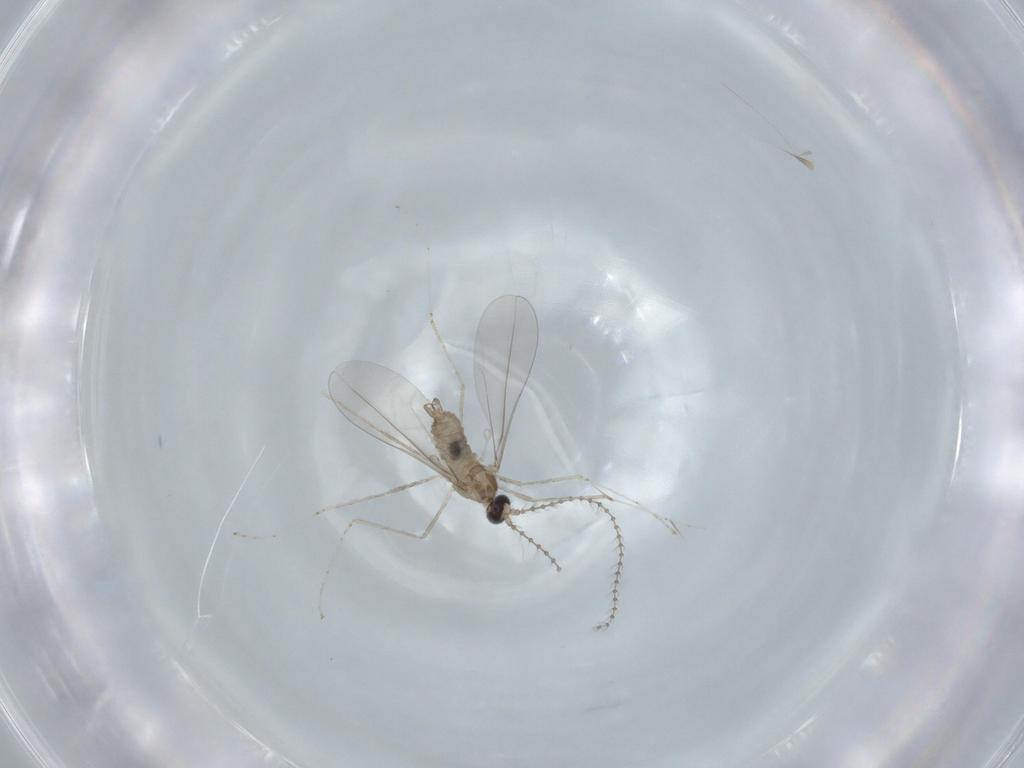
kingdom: Animalia
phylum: Arthropoda
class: Insecta
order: Diptera
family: Cecidomyiidae
